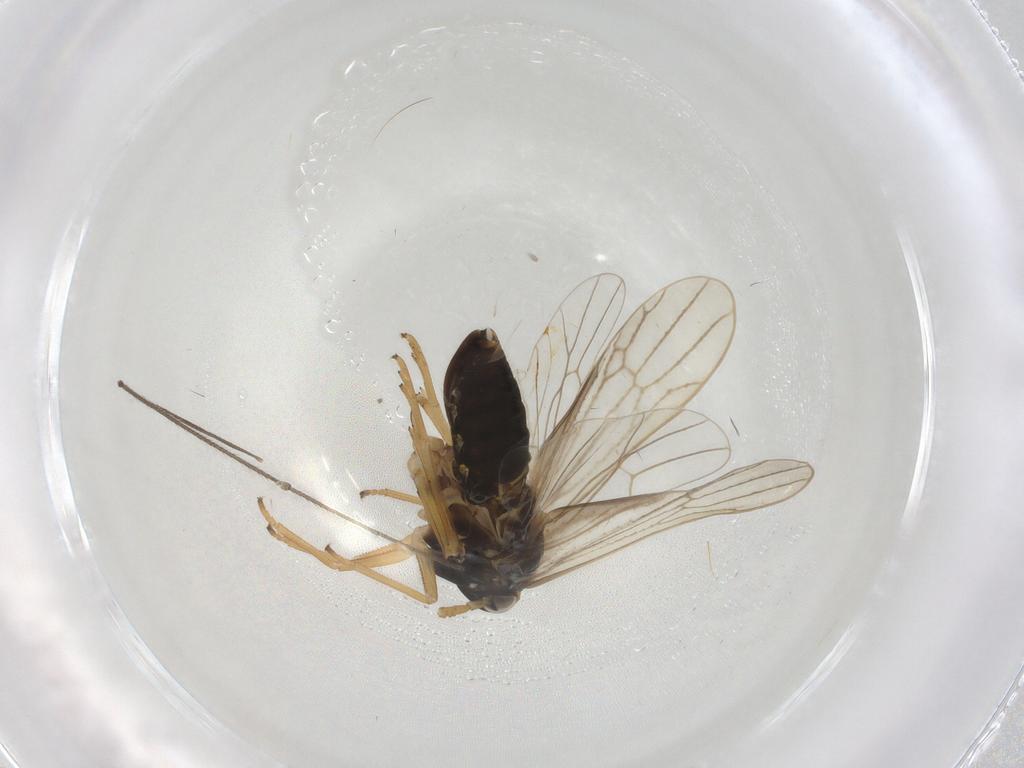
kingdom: Animalia
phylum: Arthropoda
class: Insecta
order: Hemiptera
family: Delphacidae
